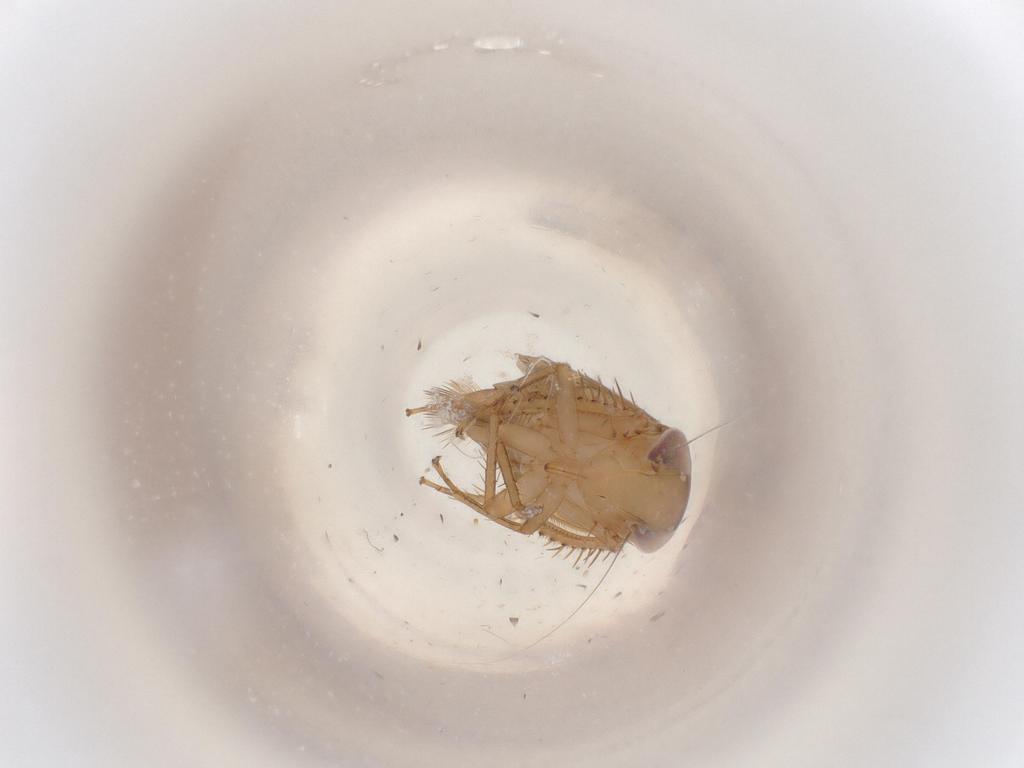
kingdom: Animalia
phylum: Arthropoda
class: Insecta
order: Hemiptera
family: Cicadellidae
